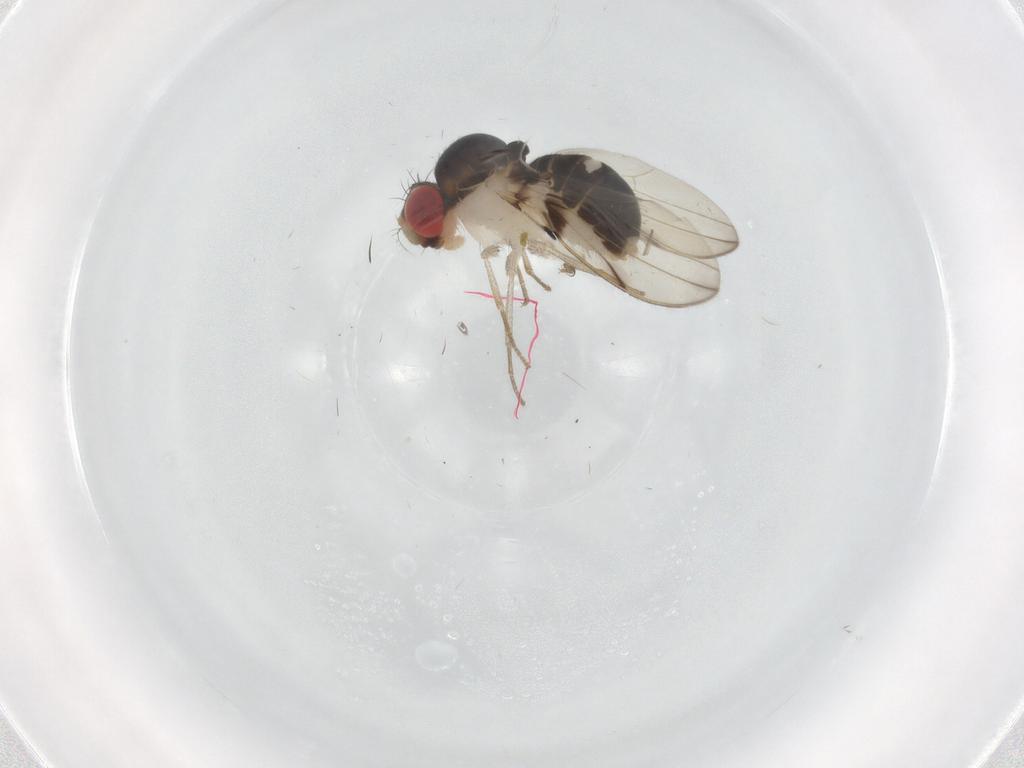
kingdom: Animalia
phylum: Arthropoda
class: Insecta
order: Diptera
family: Drosophilidae
